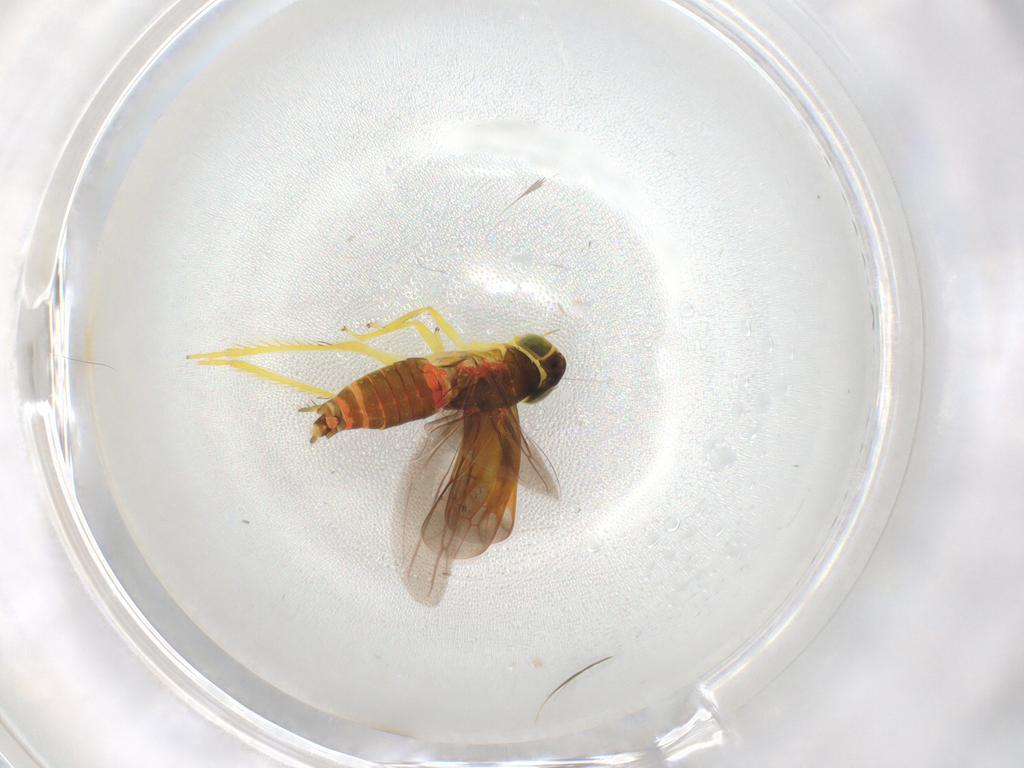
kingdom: Animalia
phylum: Arthropoda
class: Insecta
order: Hemiptera
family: Cicadellidae
